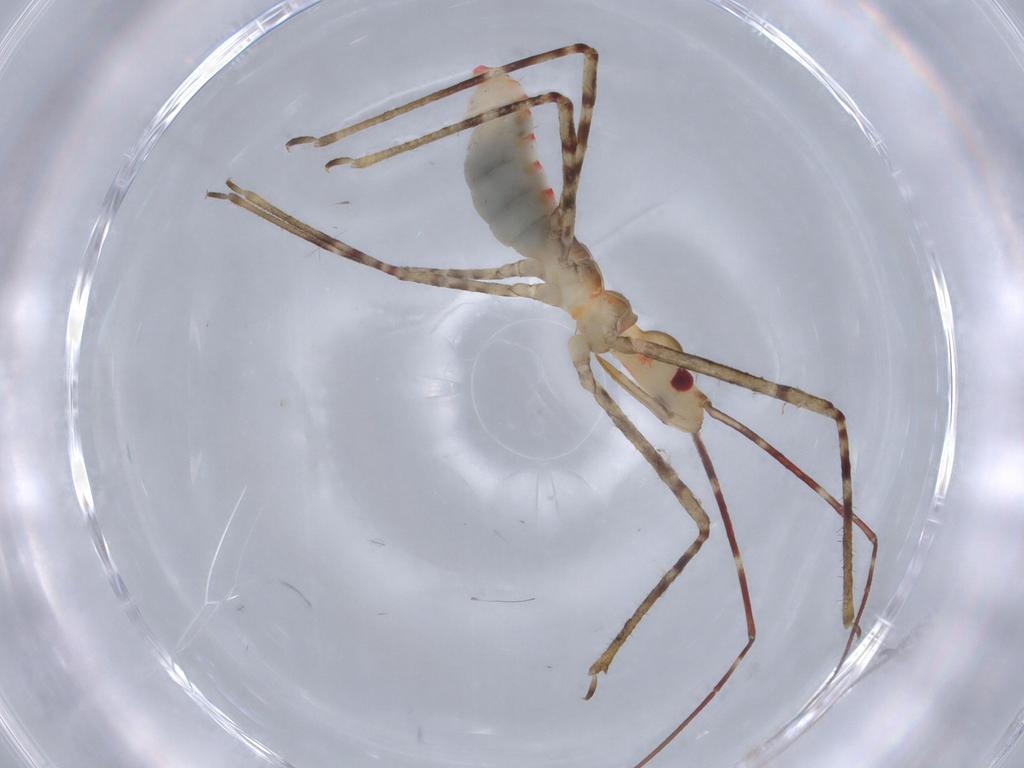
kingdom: Animalia
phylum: Arthropoda
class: Insecta
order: Hemiptera
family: Reduviidae
